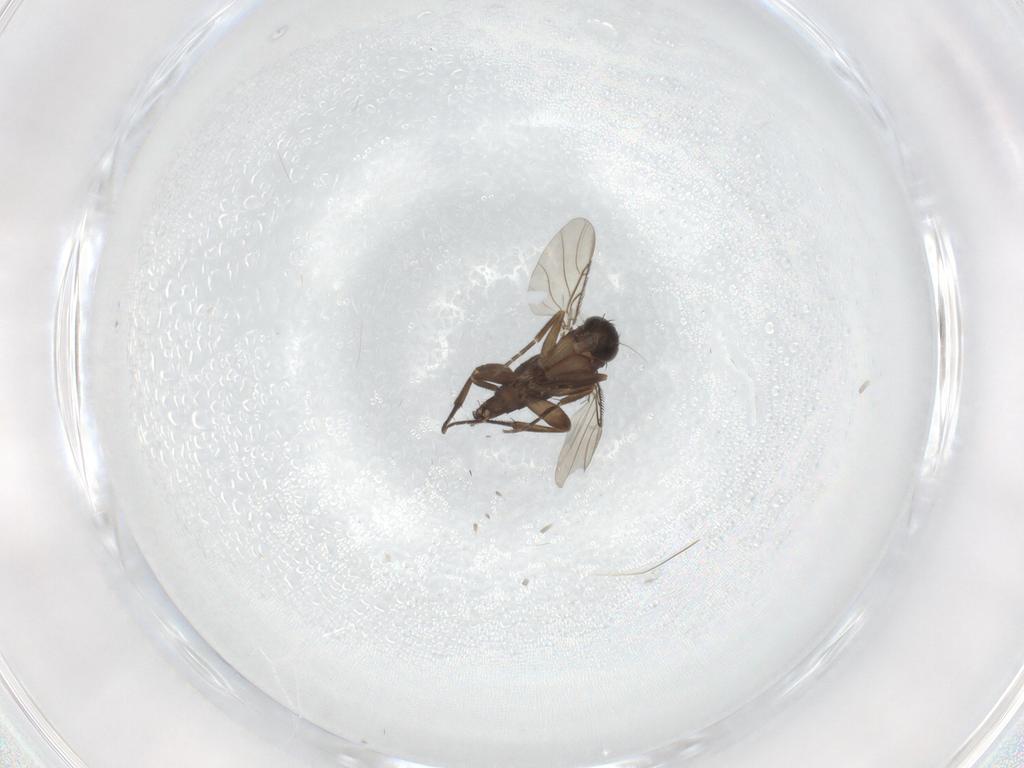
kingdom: Animalia
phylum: Arthropoda
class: Insecta
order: Diptera
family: Phoridae
